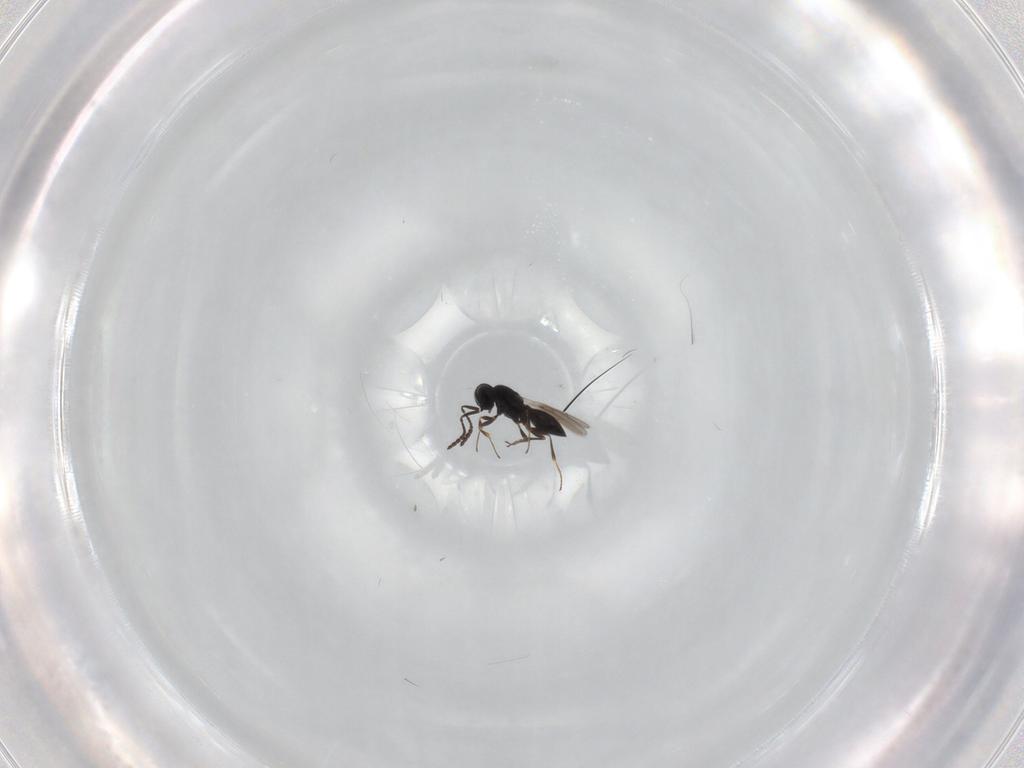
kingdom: Animalia
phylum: Arthropoda
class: Insecta
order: Hymenoptera
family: Scelionidae
